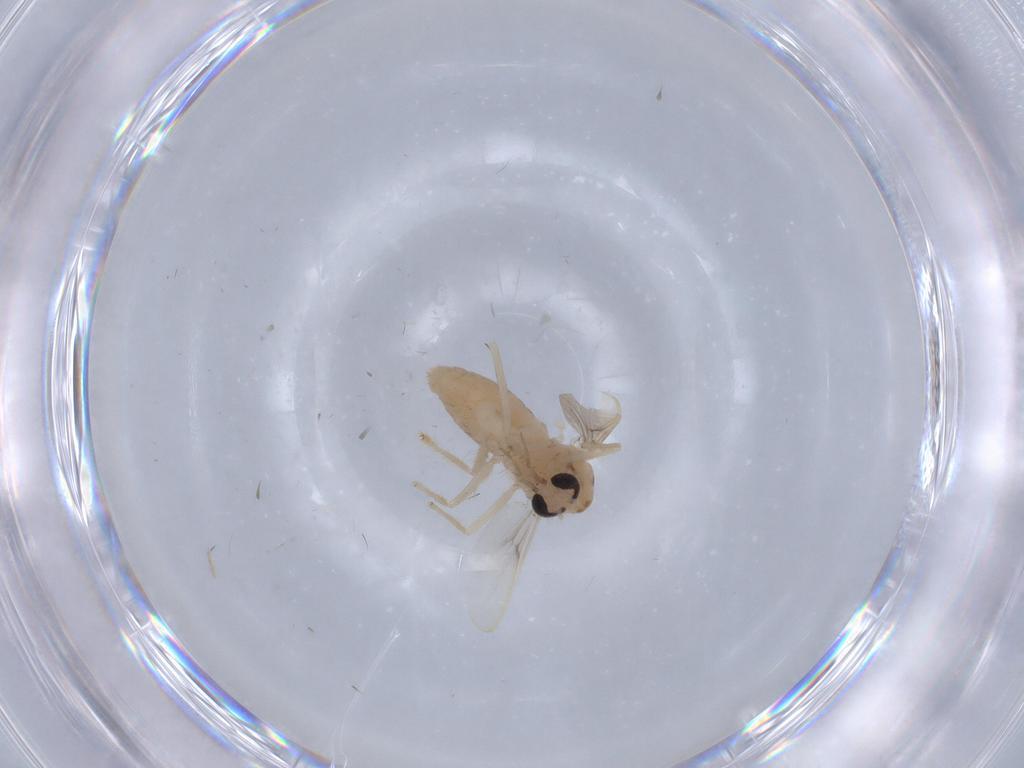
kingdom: Animalia
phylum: Arthropoda
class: Insecta
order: Diptera
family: Chironomidae
